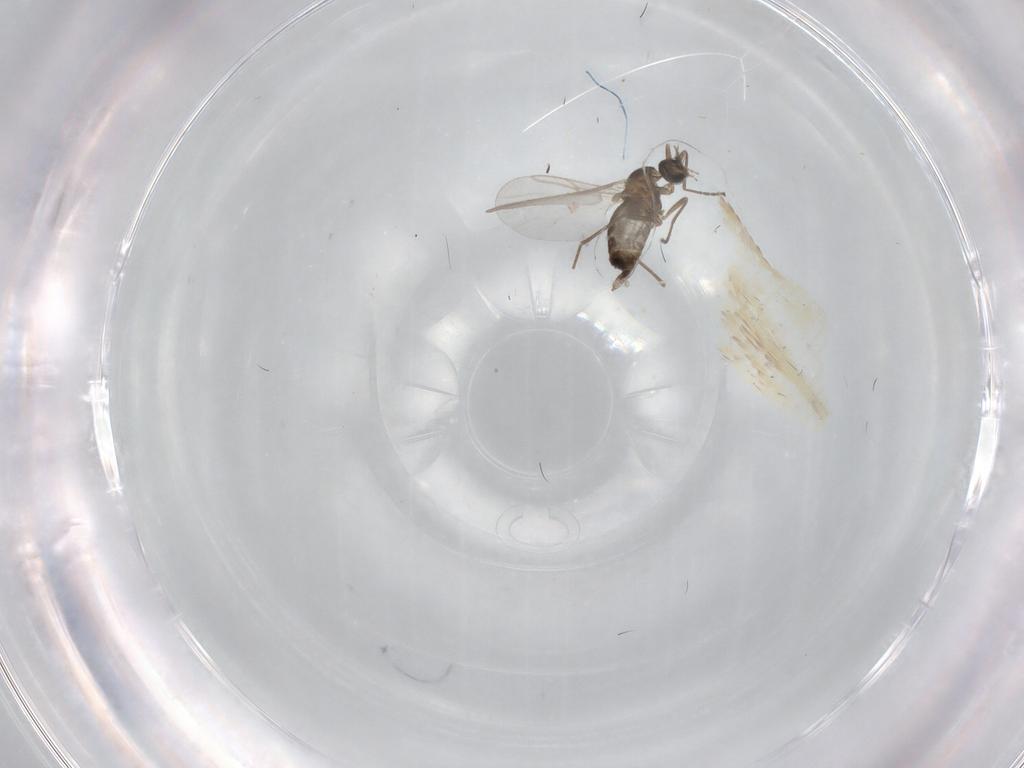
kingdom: Animalia
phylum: Arthropoda
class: Insecta
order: Diptera
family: Cecidomyiidae
